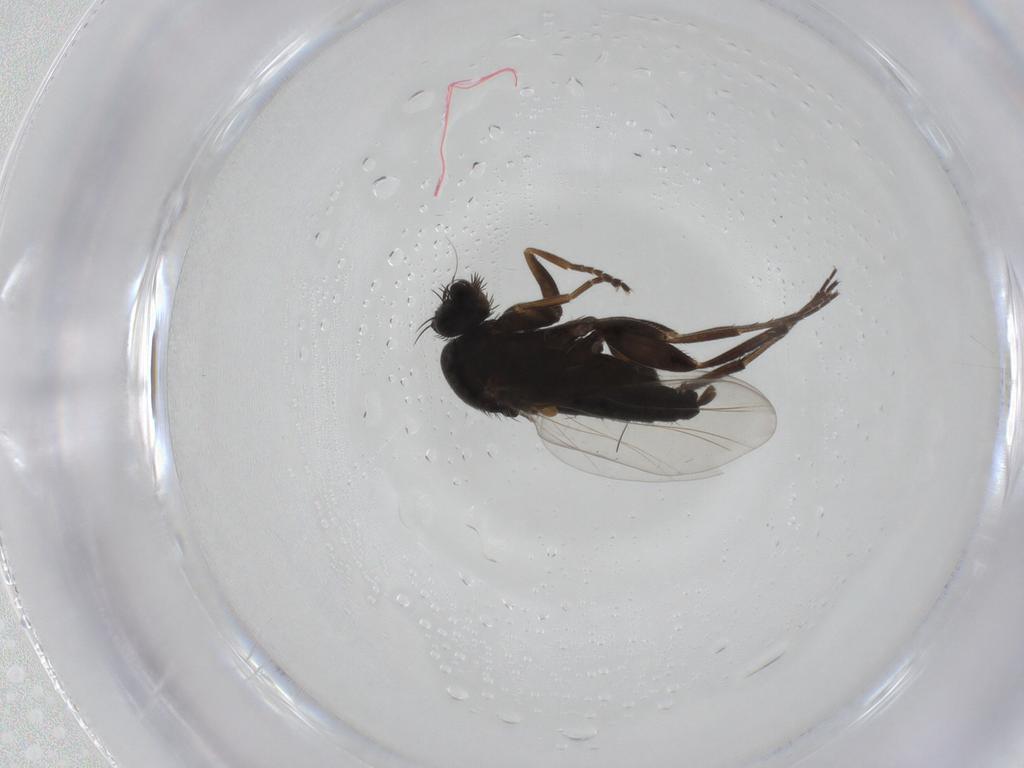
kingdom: Animalia
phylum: Arthropoda
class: Insecta
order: Diptera
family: Phoridae
